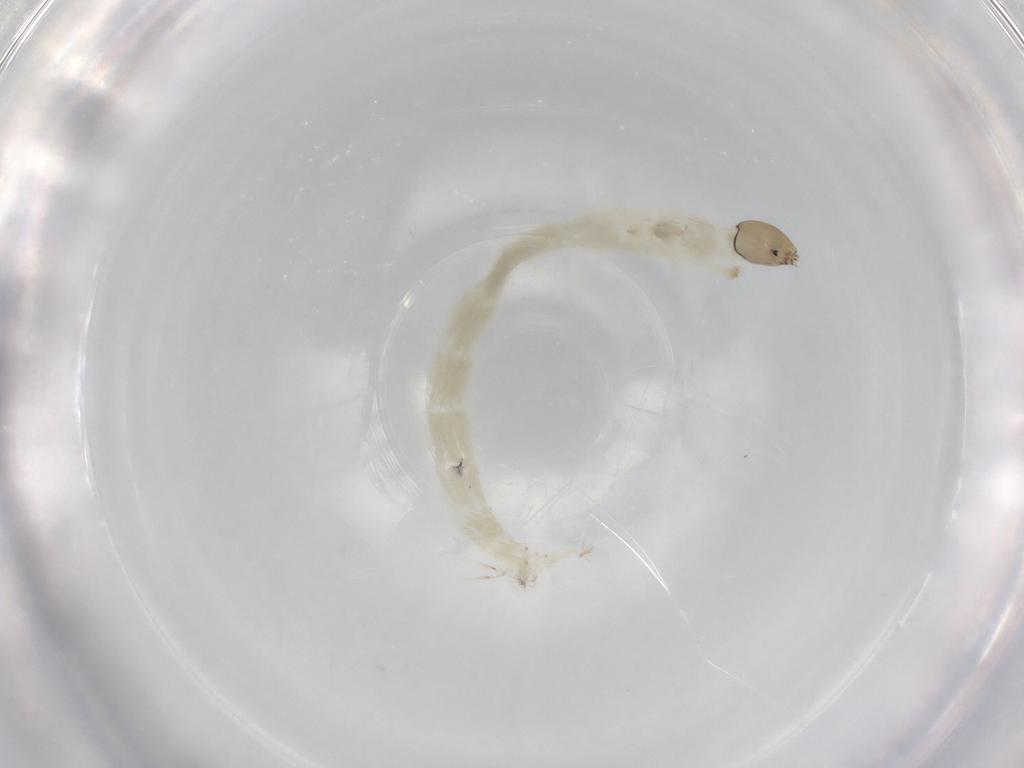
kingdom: Animalia
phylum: Arthropoda
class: Insecta
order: Diptera
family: Chironomidae
